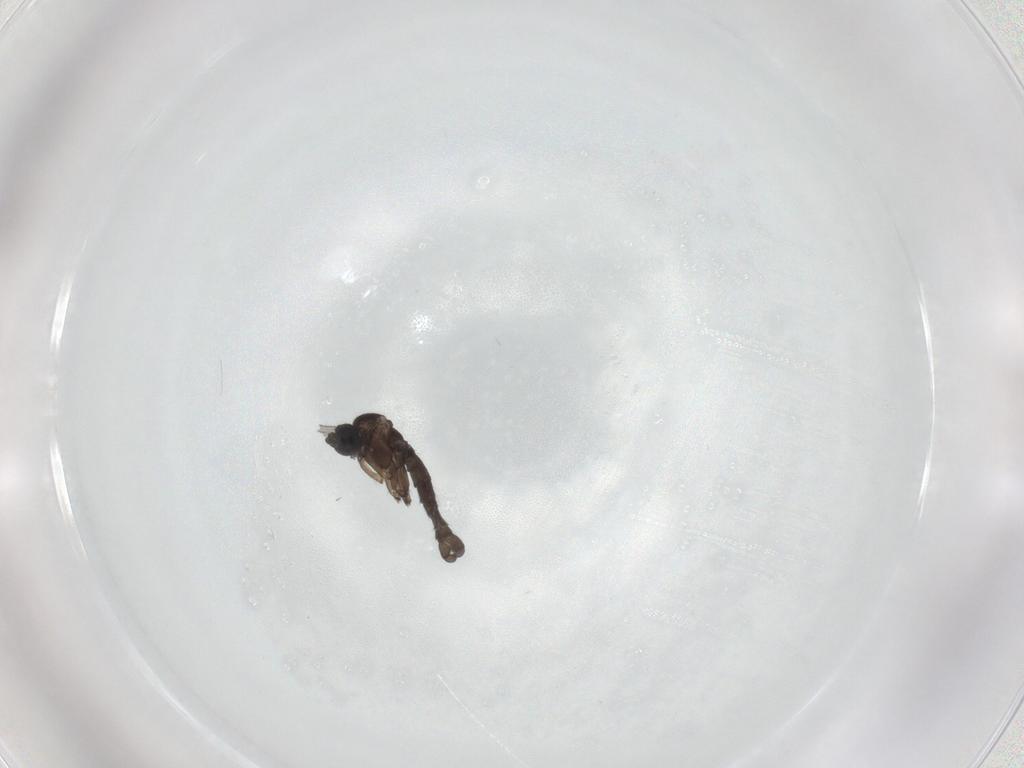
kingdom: Animalia
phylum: Arthropoda
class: Insecta
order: Diptera
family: Sciaridae
